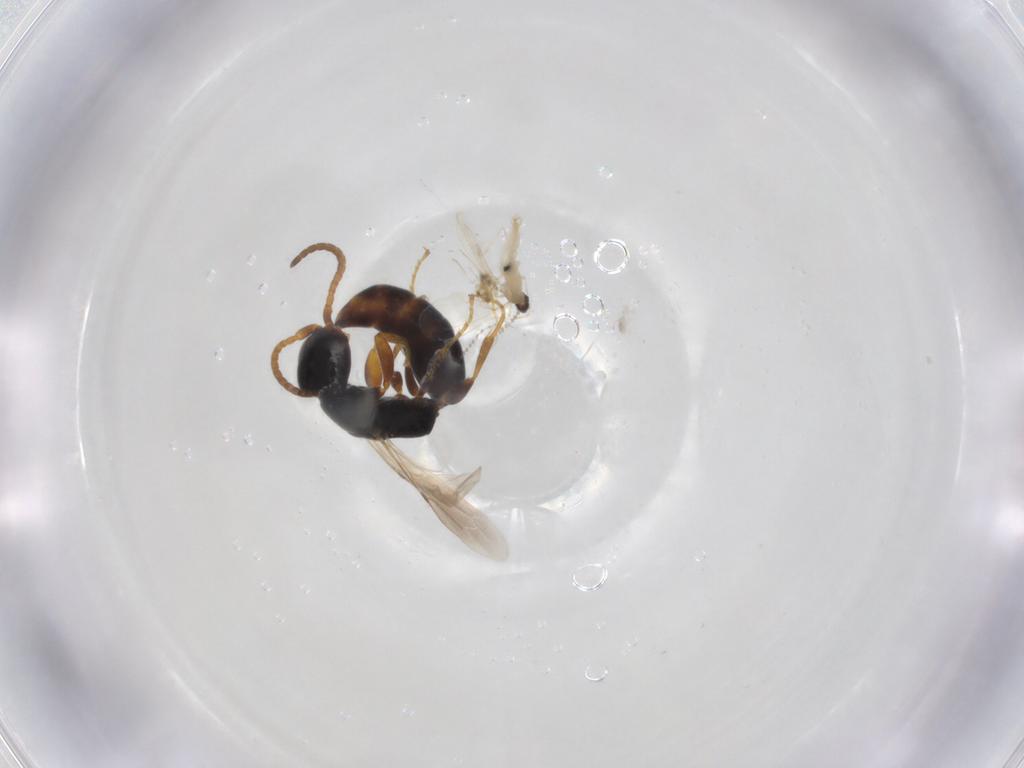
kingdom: Animalia
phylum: Arthropoda
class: Insecta
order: Hymenoptera
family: Bethylidae
